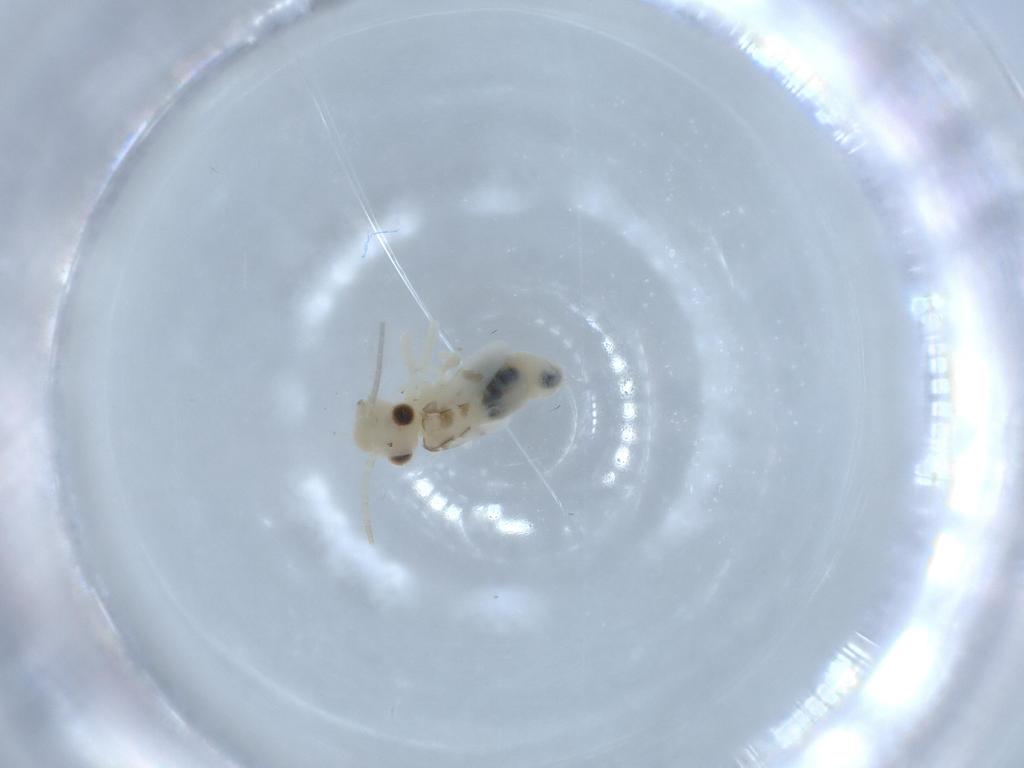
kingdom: Animalia
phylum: Arthropoda
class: Insecta
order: Psocodea
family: Caeciliusidae
